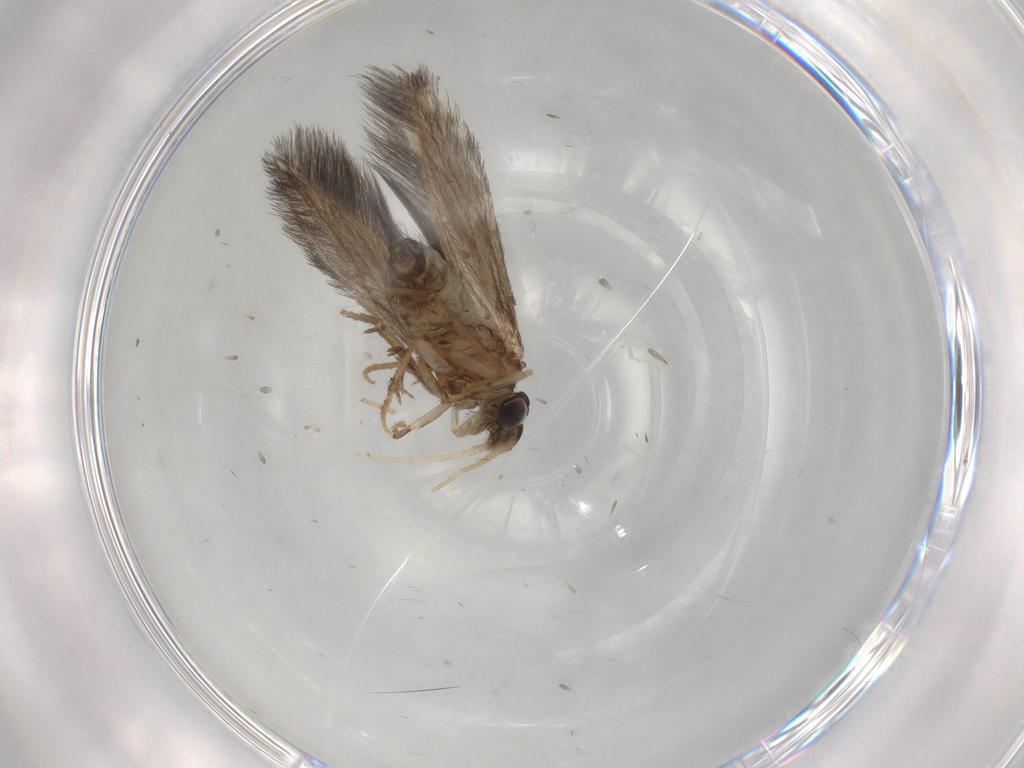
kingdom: Animalia
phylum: Arthropoda
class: Insecta
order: Trichoptera
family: Hydroptilidae
